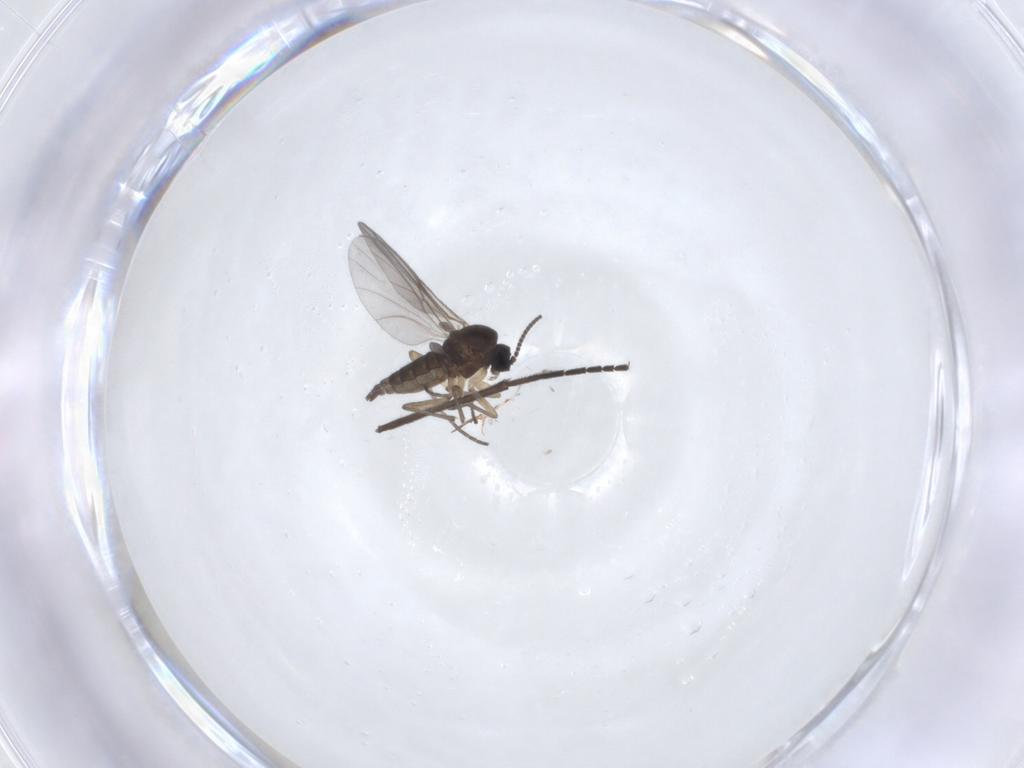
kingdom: Animalia
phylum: Arthropoda
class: Insecta
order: Diptera
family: Sciaridae
